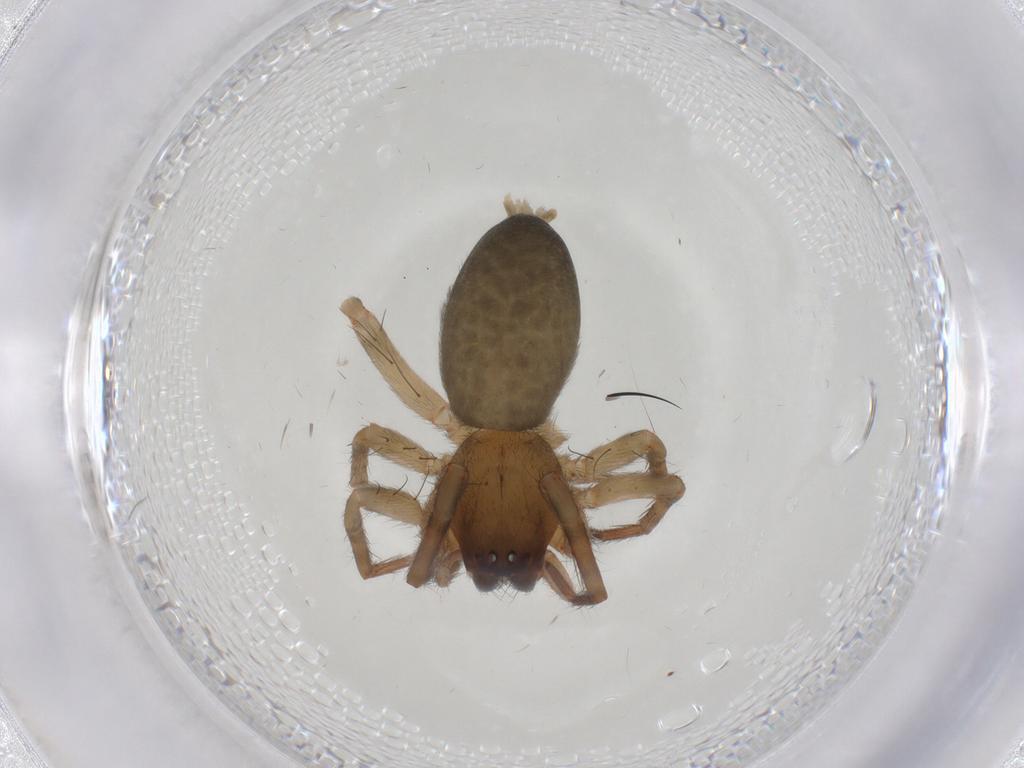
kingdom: Animalia
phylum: Arthropoda
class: Arachnida
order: Araneae
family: Anyphaenidae
